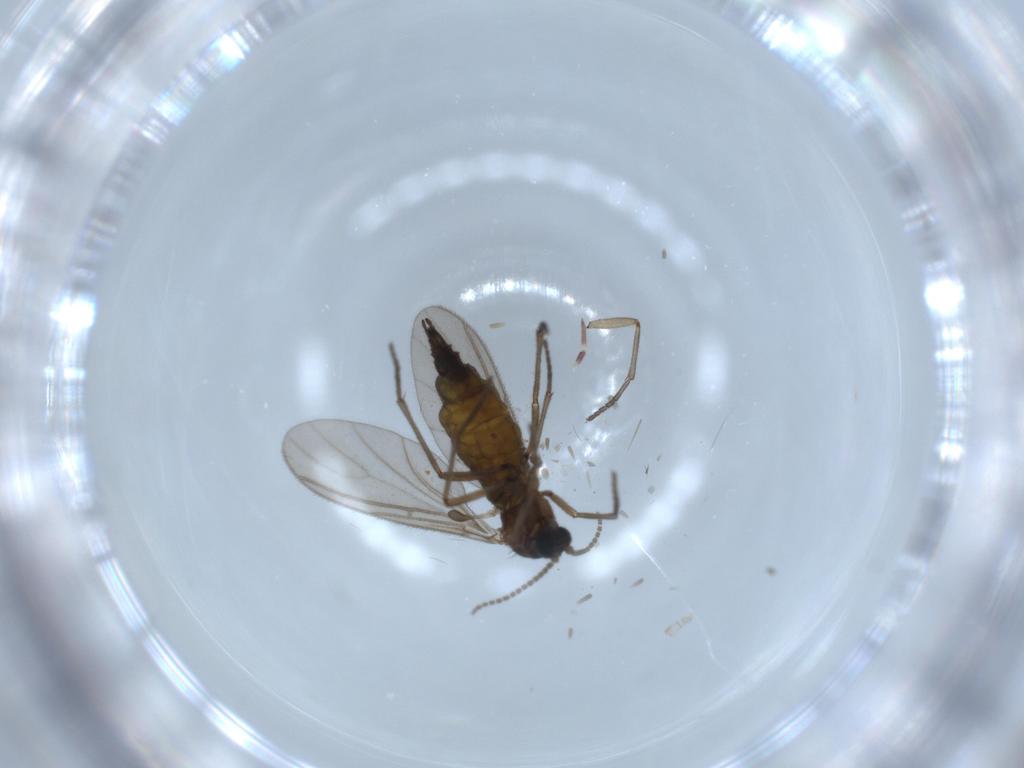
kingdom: Animalia
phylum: Arthropoda
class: Insecta
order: Diptera
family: Sciaridae
